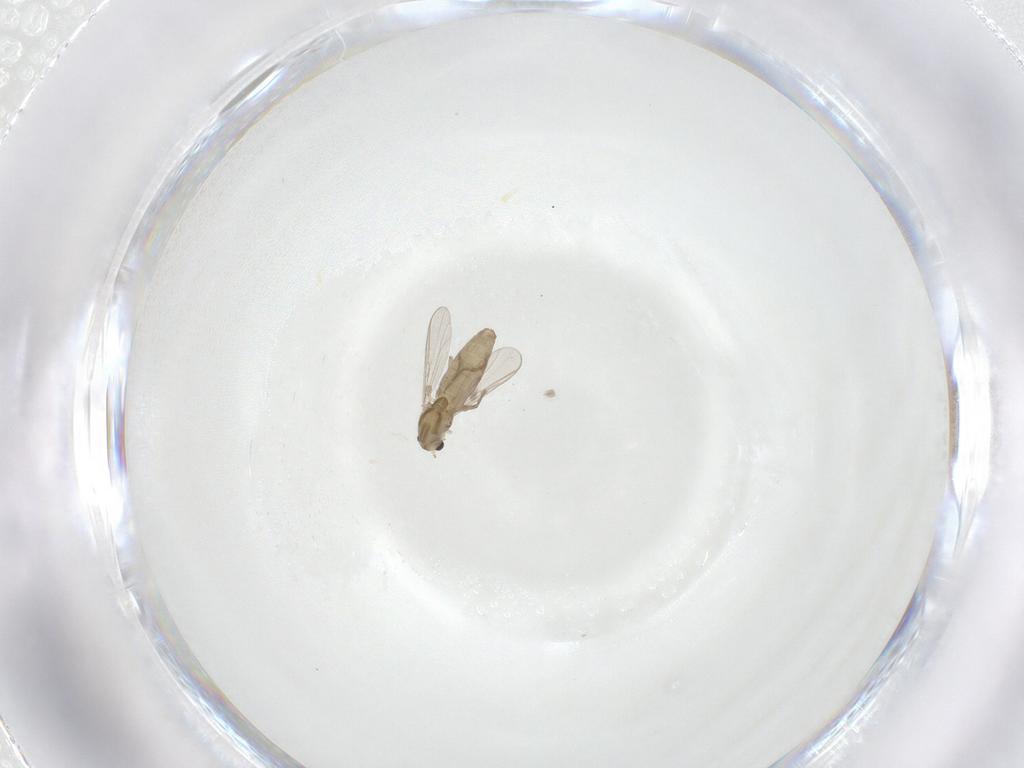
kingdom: Animalia
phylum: Arthropoda
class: Insecta
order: Diptera
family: Chironomidae
